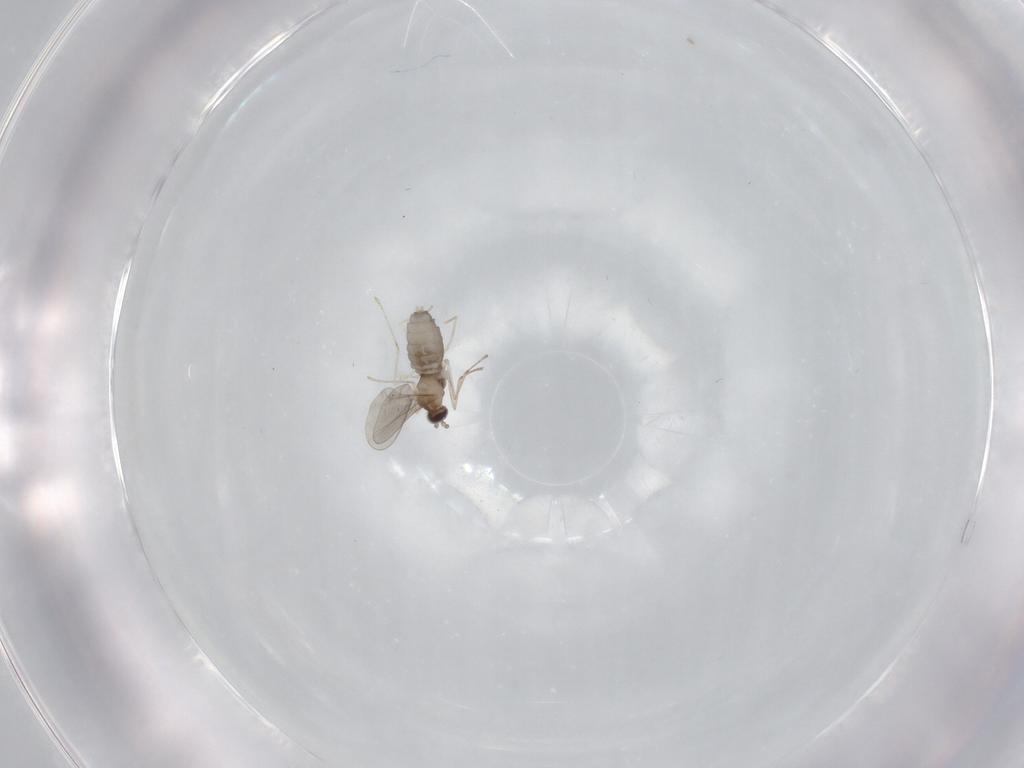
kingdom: Animalia
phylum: Arthropoda
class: Insecta
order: Diptera
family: Cecidomyiidae
